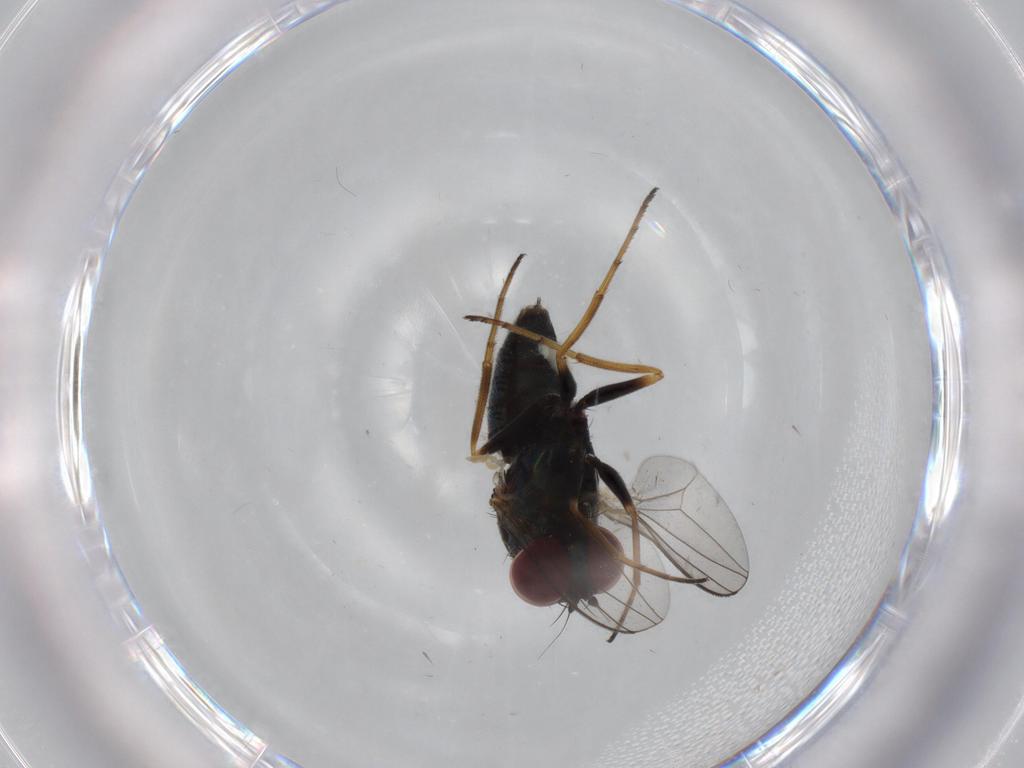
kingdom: Animalia
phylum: Arthropoda
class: Insecta
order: Diptera
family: Dolichopodidae
